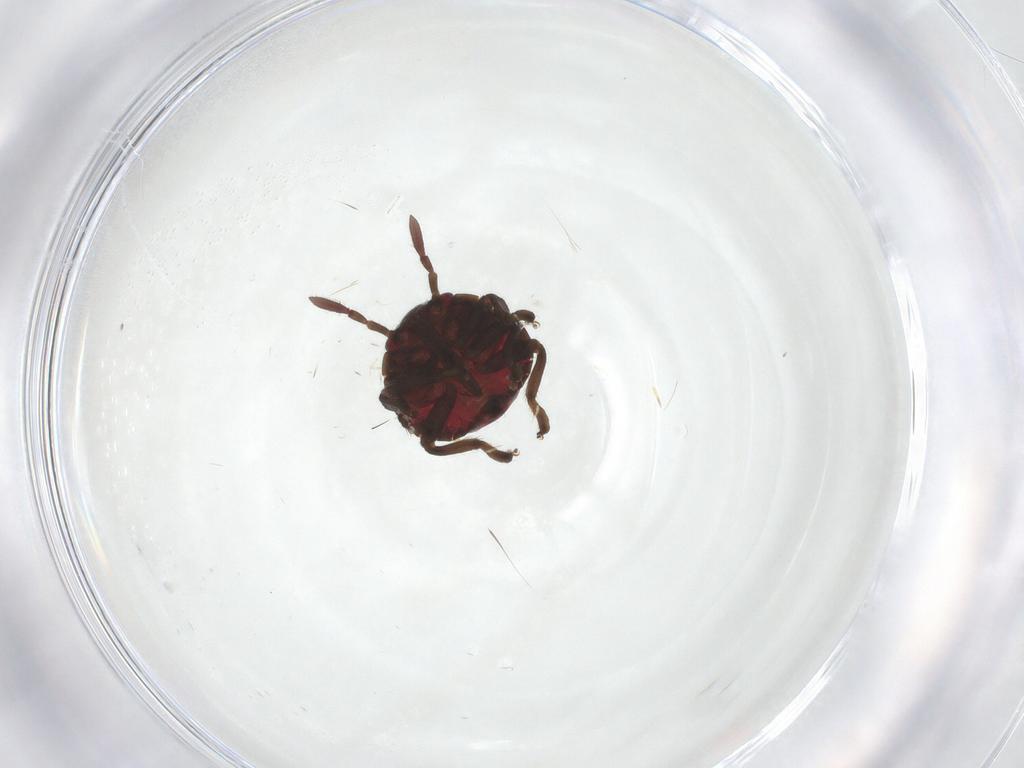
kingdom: Animalia
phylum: Arthropoda
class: Insecta
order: Hemiptera
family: Pentatomidae
